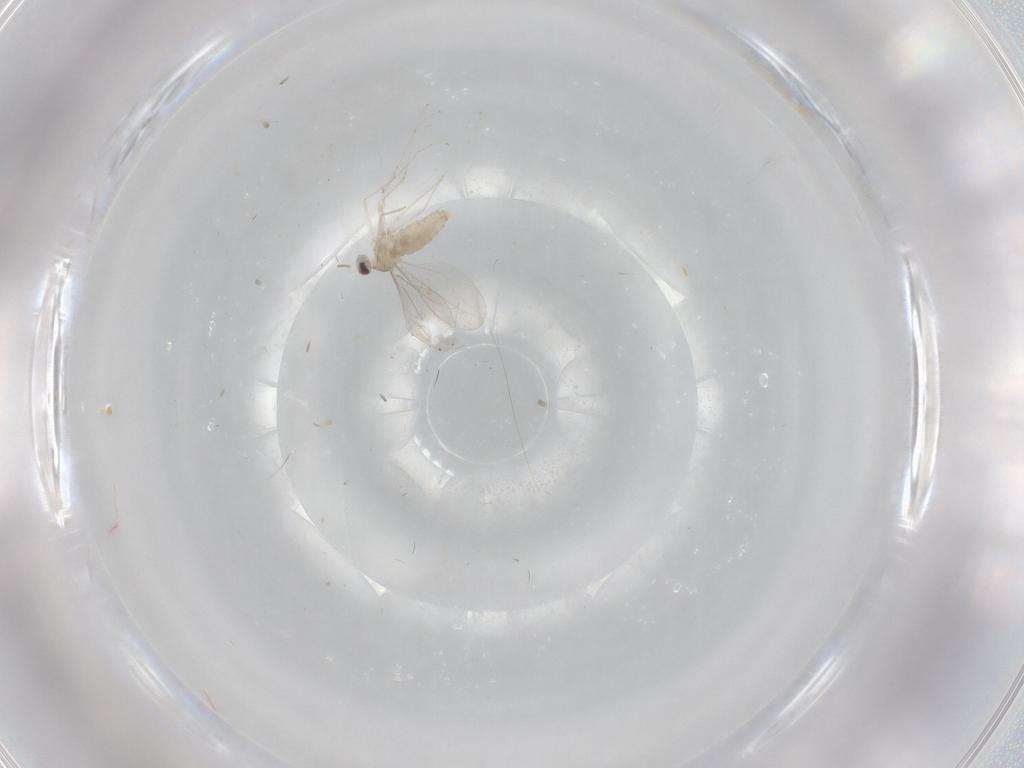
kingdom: Animalia
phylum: Arthropoda
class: Insecta
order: Diptera
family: Cecidomyiidae
